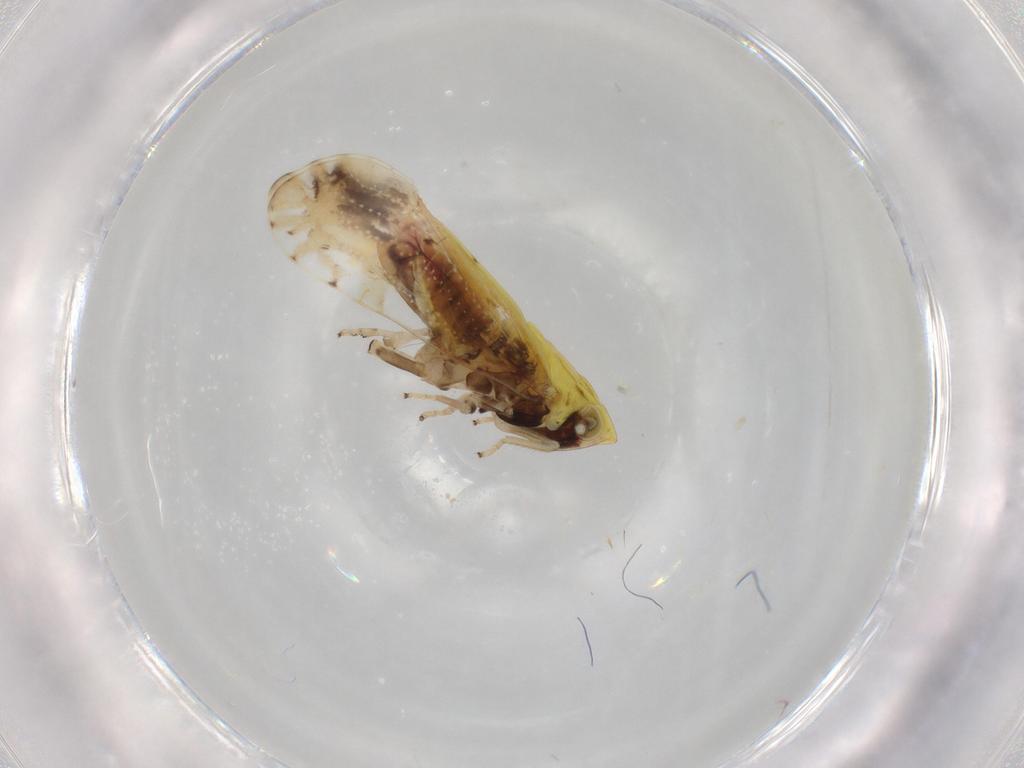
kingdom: Animalia
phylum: Arthropoda
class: Insecta
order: Hemiptera
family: Delphacidae
